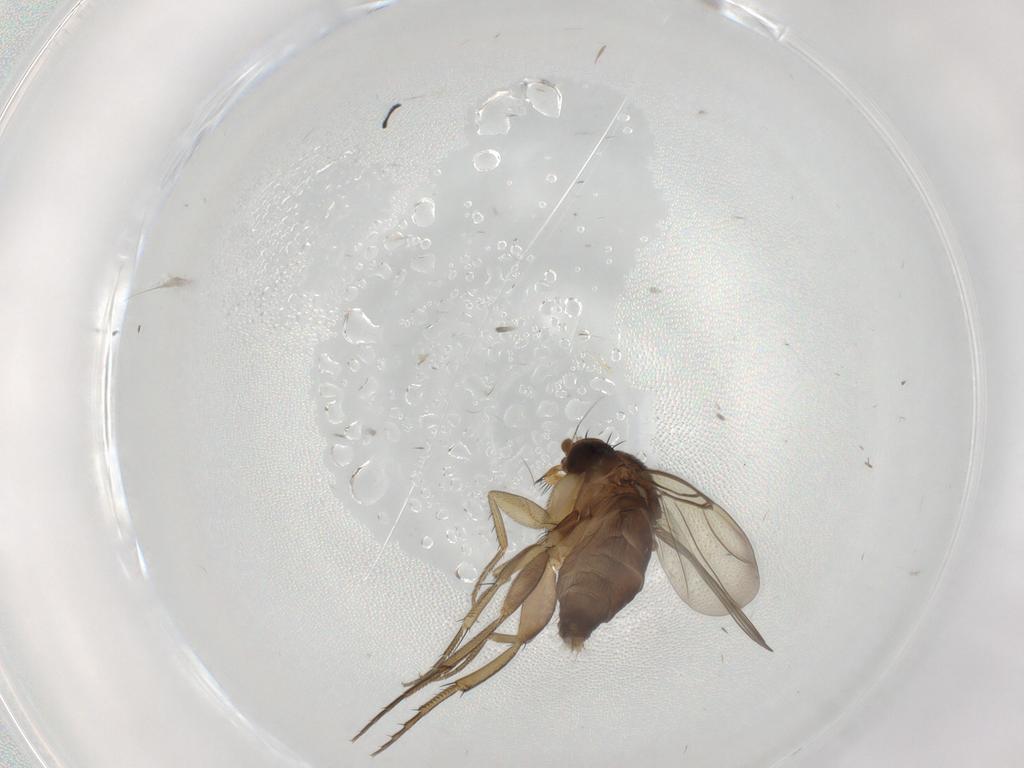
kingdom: Animalia
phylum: Arthropoda
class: Insecta
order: Diptera
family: Phoridae
